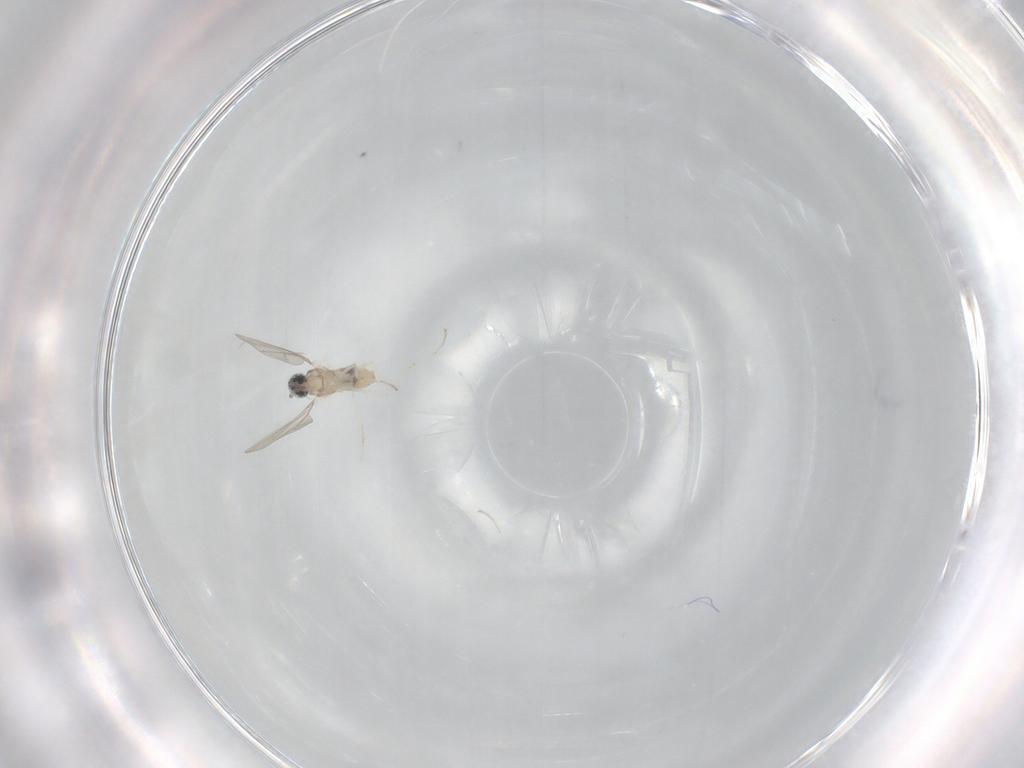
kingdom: Animalia
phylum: Arthropoda
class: Insecta
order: Diptera
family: Cecidomyiidae
